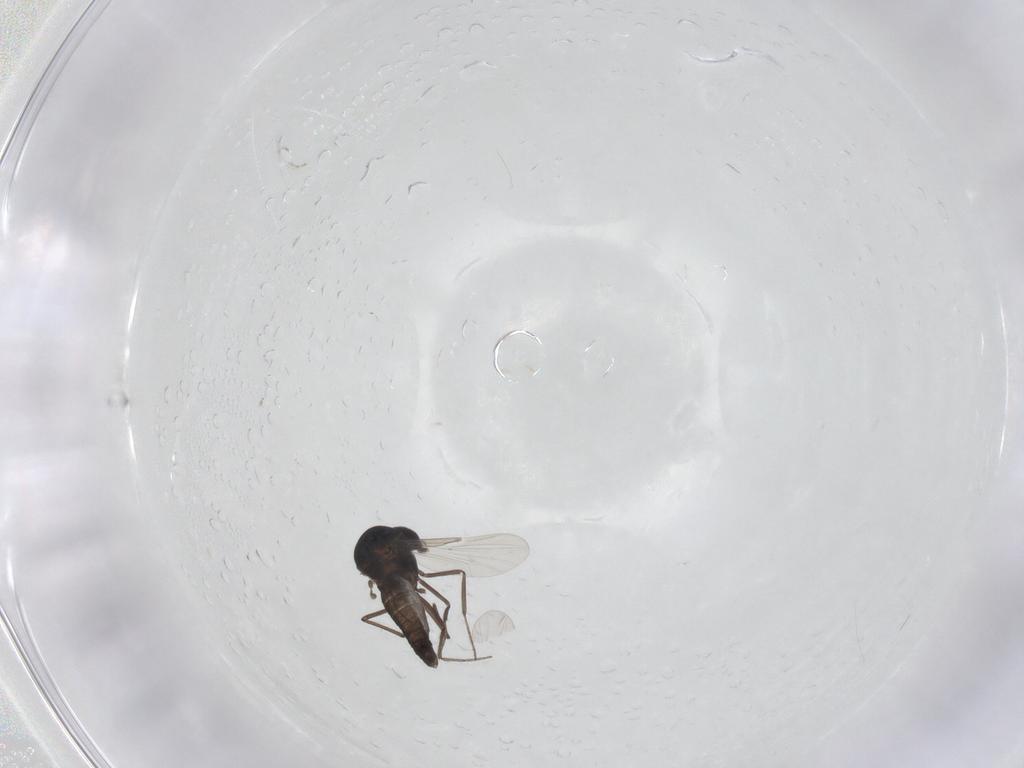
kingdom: Animalia
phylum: Arthropoda
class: Insecta
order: Diptera
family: Ceratopogonidae
